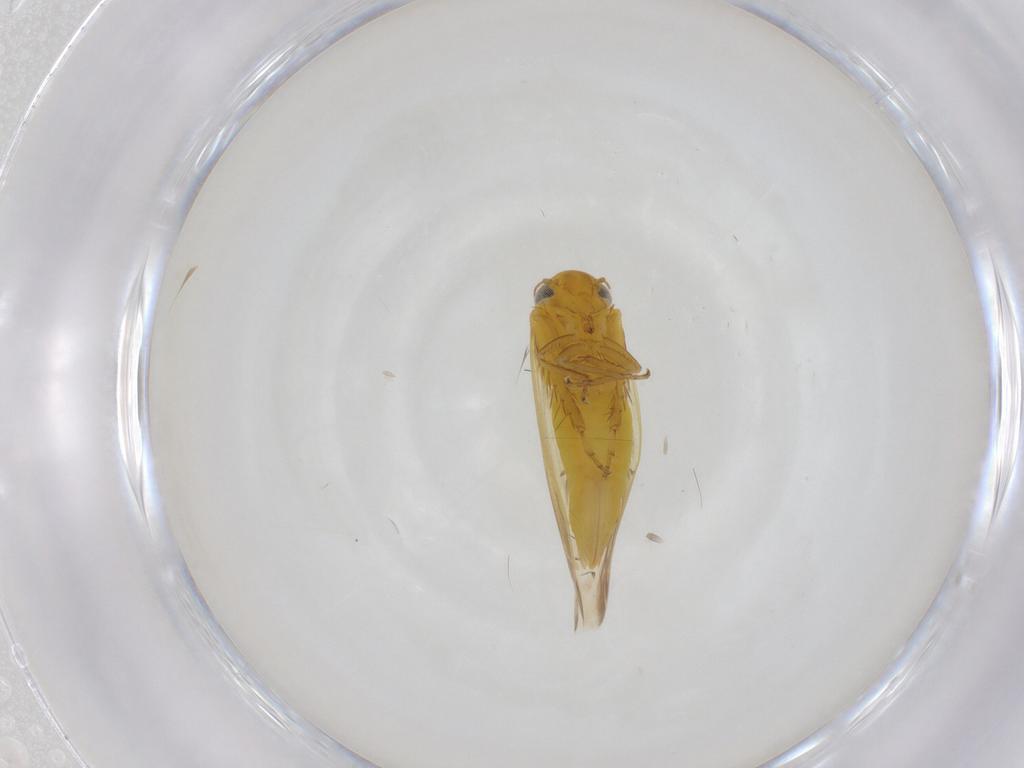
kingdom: Animalia
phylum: Arthropoda
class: Insecta
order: Hemiptera
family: Cicadellidae
